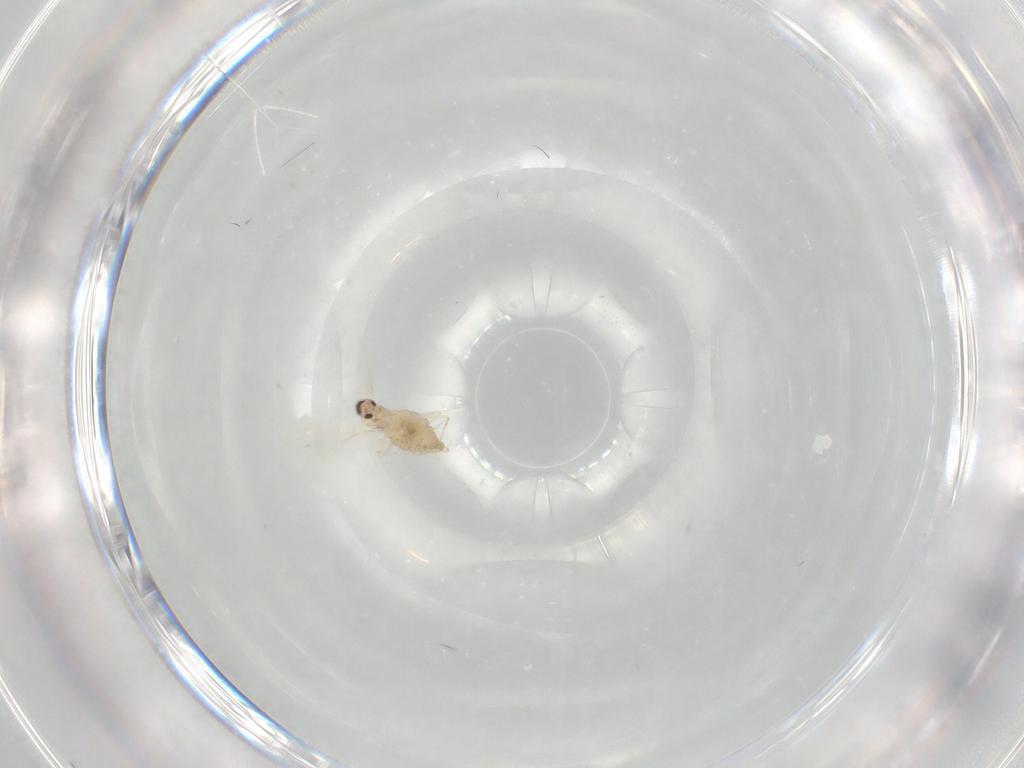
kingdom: Animalia
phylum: Arthropoda
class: Insecta
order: Diptera
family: Cecidomyiidae
